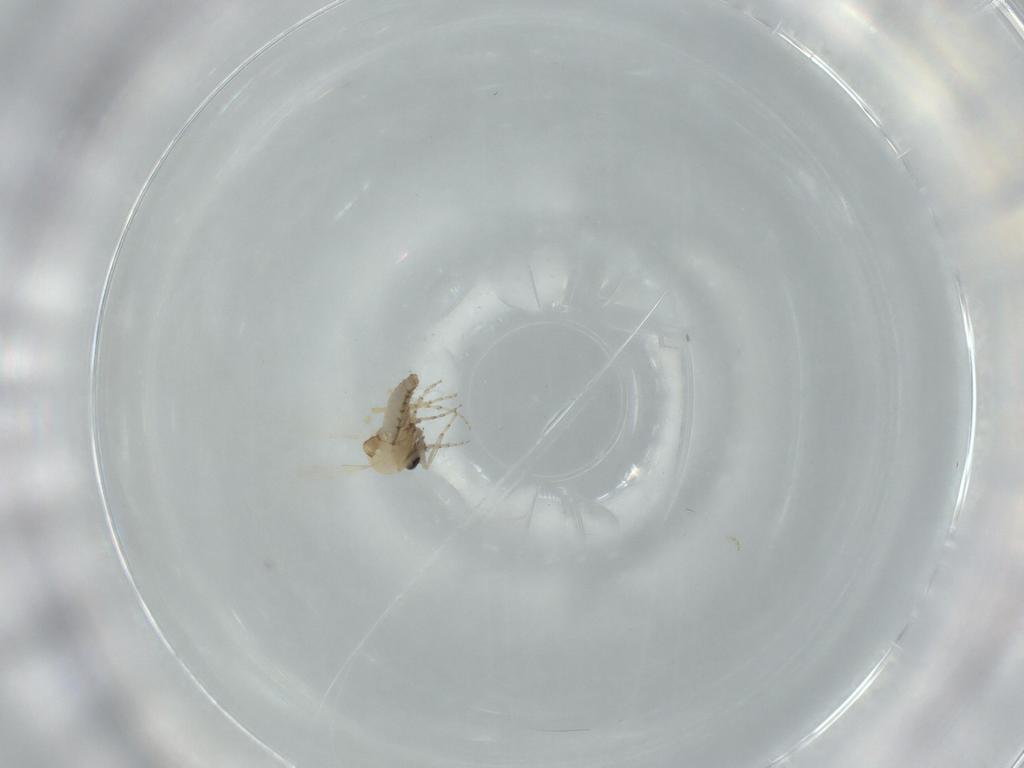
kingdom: Animalia
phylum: Arthropoda
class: Insecta
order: Diptera
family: Ceratopogonidae
